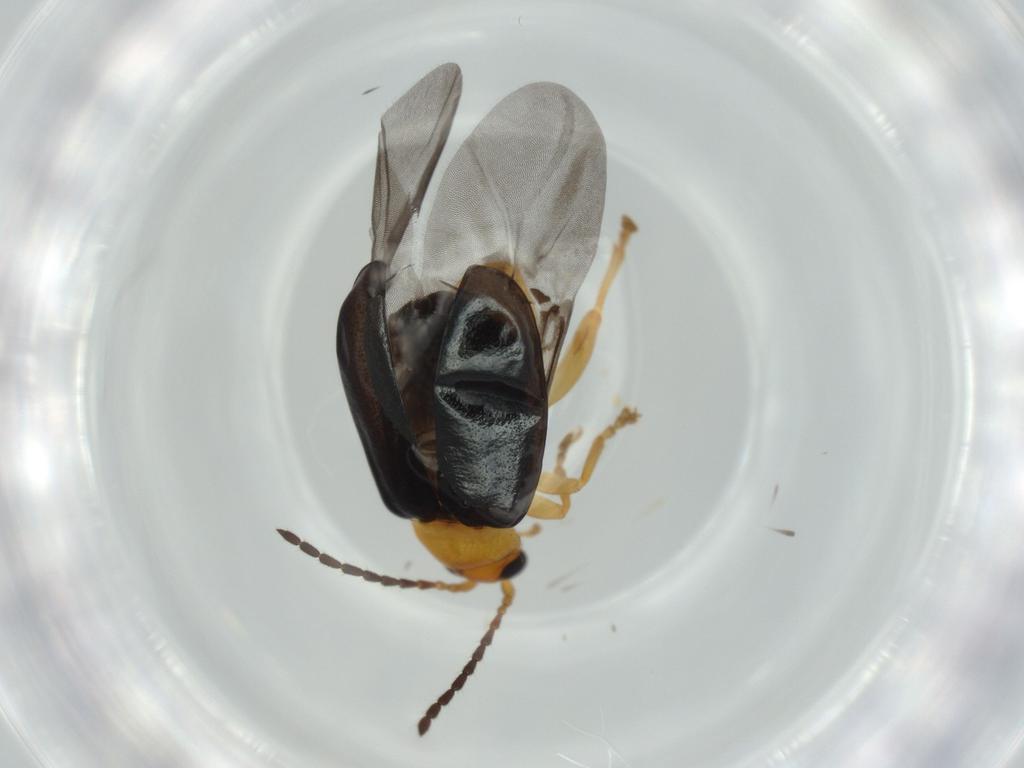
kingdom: Animalia
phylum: Arthropoda
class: Insecta
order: Coleoptera
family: Chrysomelidae
